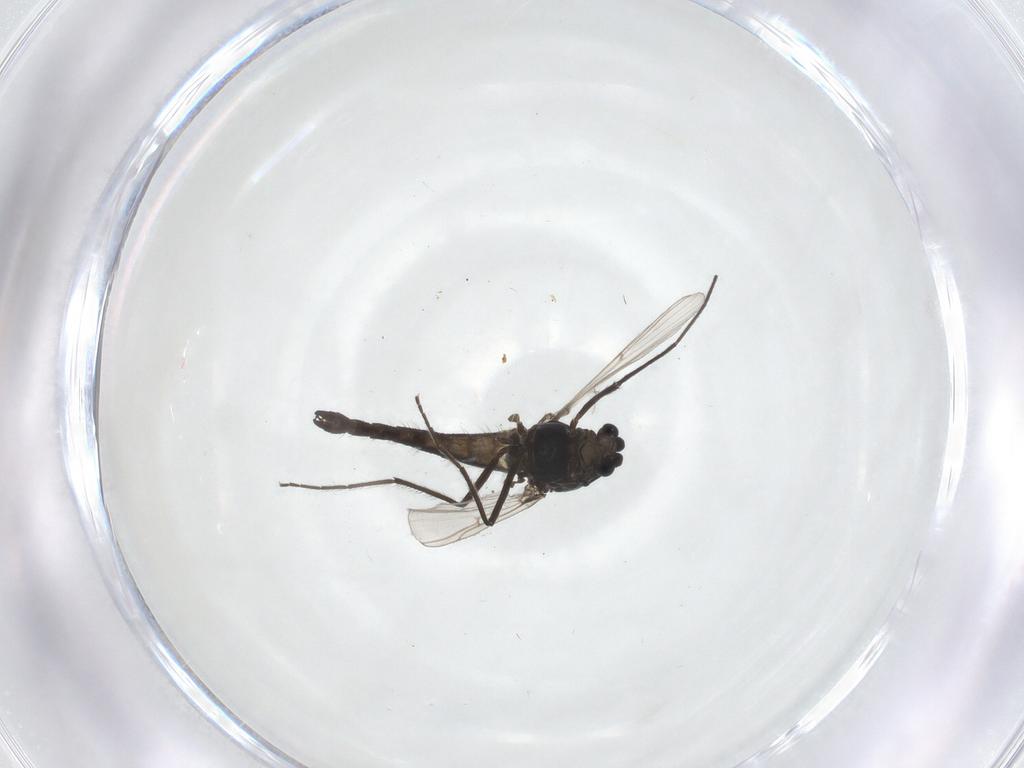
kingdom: Animalia
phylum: Arthropoda
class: Insecta
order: Diptera
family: Chironomidae
